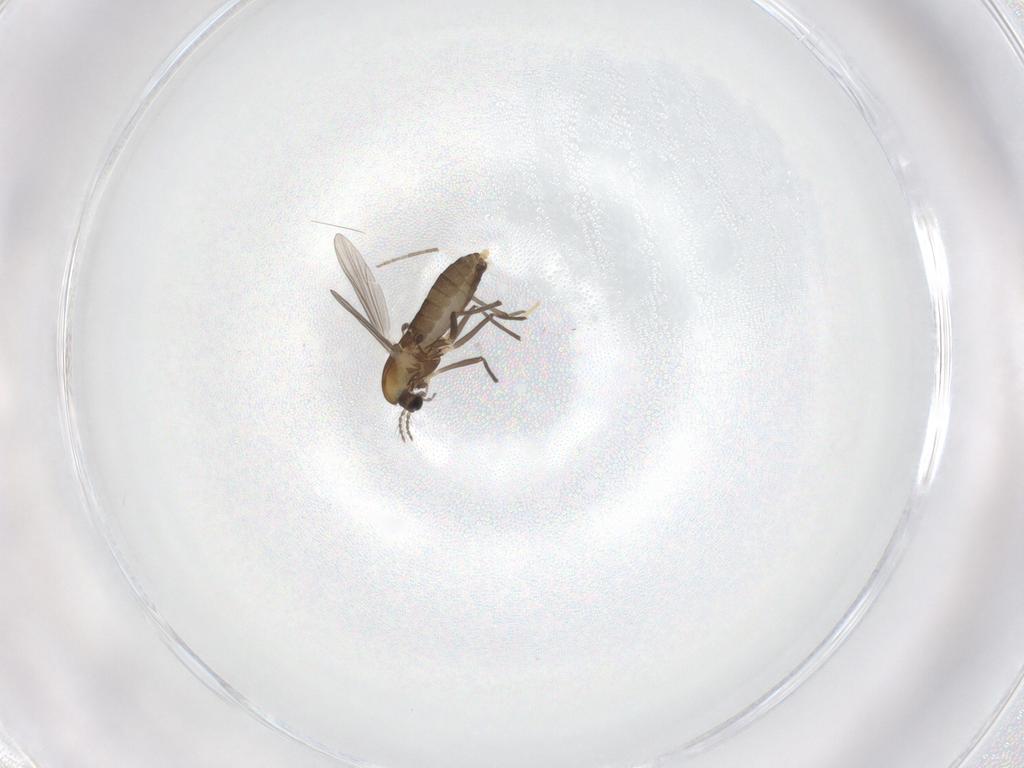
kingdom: Animalia
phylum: Arthropoda
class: Insecta
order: Diptera
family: Chironomidae
